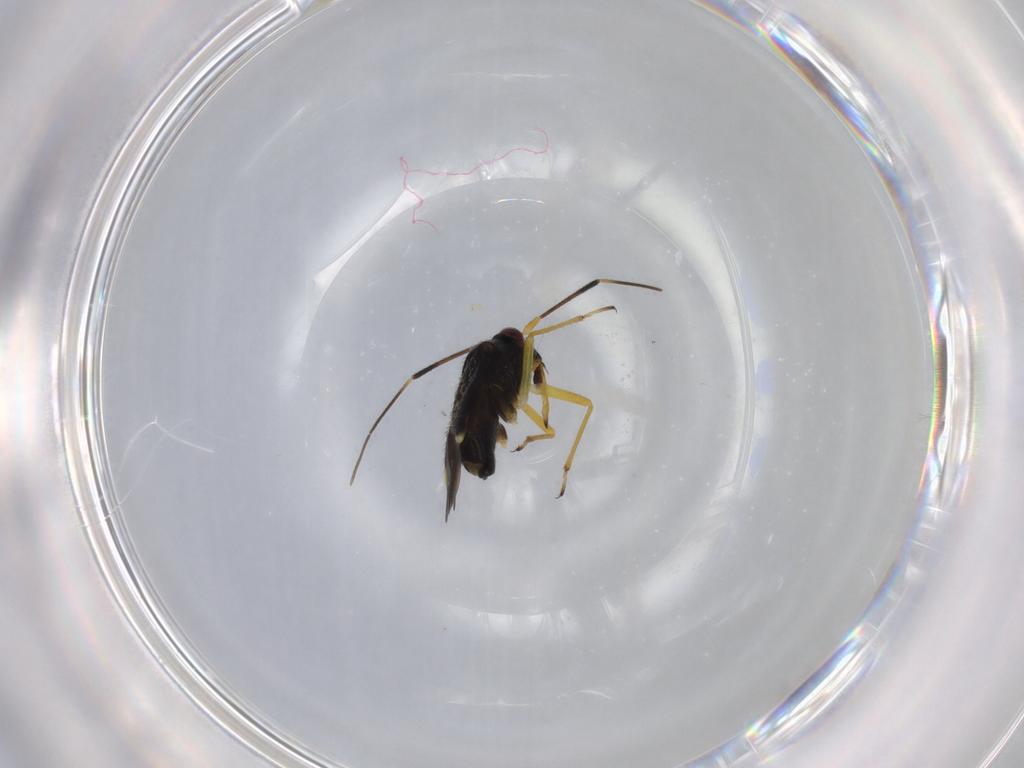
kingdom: Animalia
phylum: Arthropoda
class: Insecta
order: Hemiptera
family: Miridae
